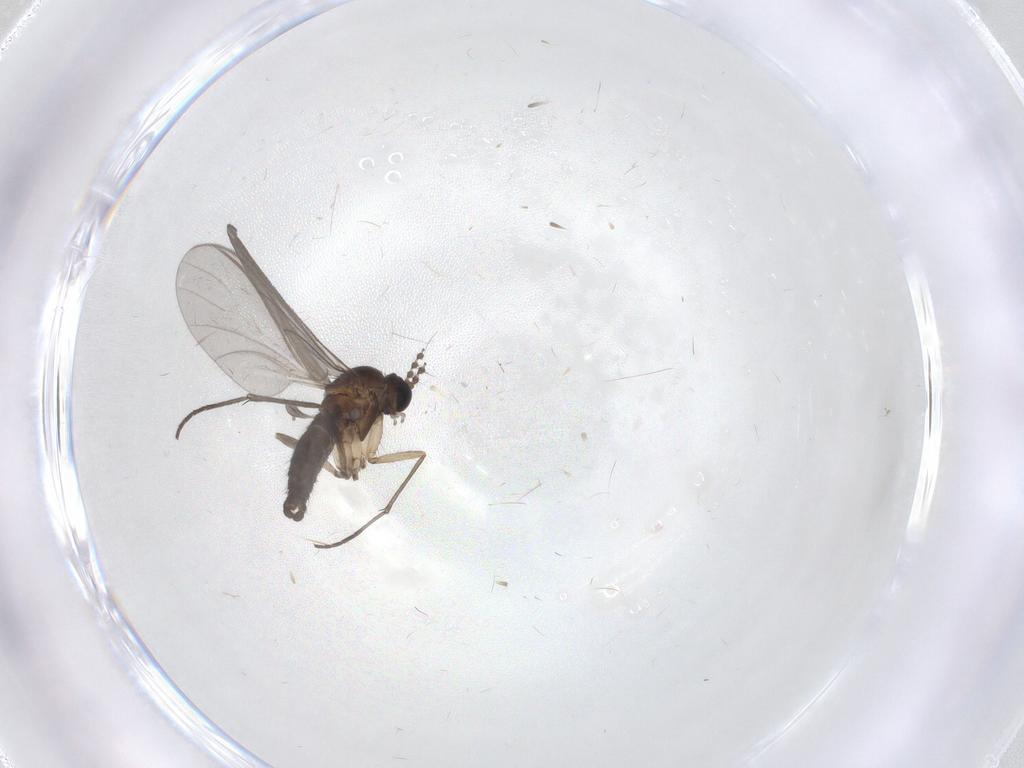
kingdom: Animalia
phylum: Arthropoda
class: Insecta
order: Diptera
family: Sciaridae
